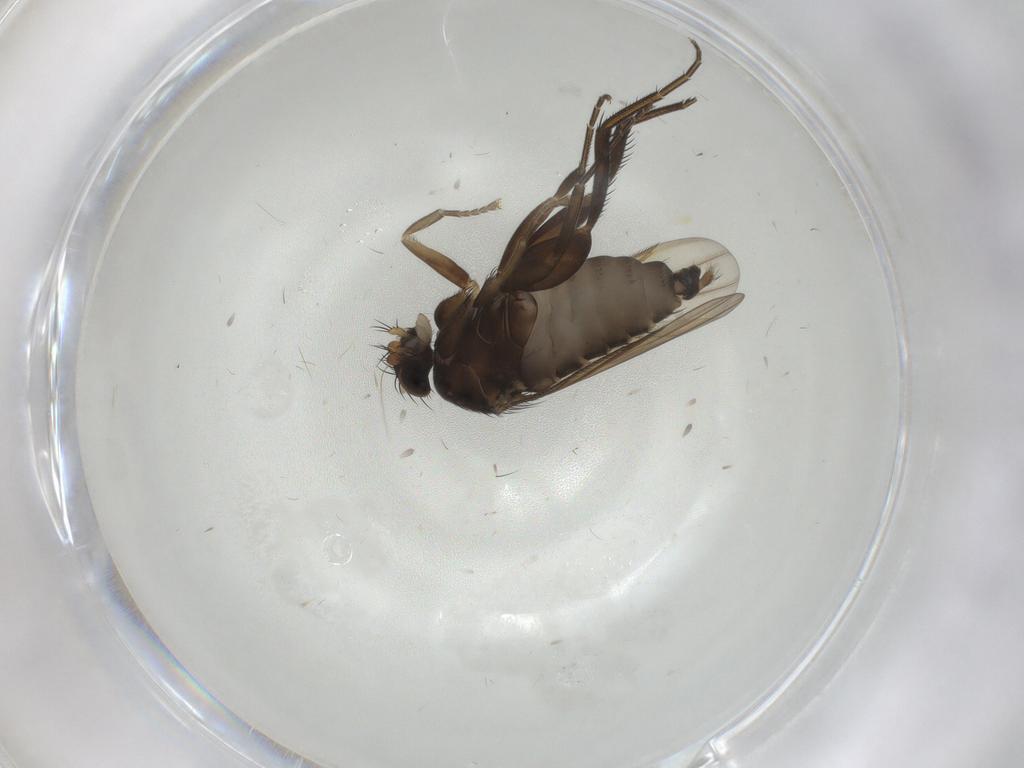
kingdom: Animalia
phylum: Arthropoda
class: Insecta
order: Diptera
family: Phoridae
